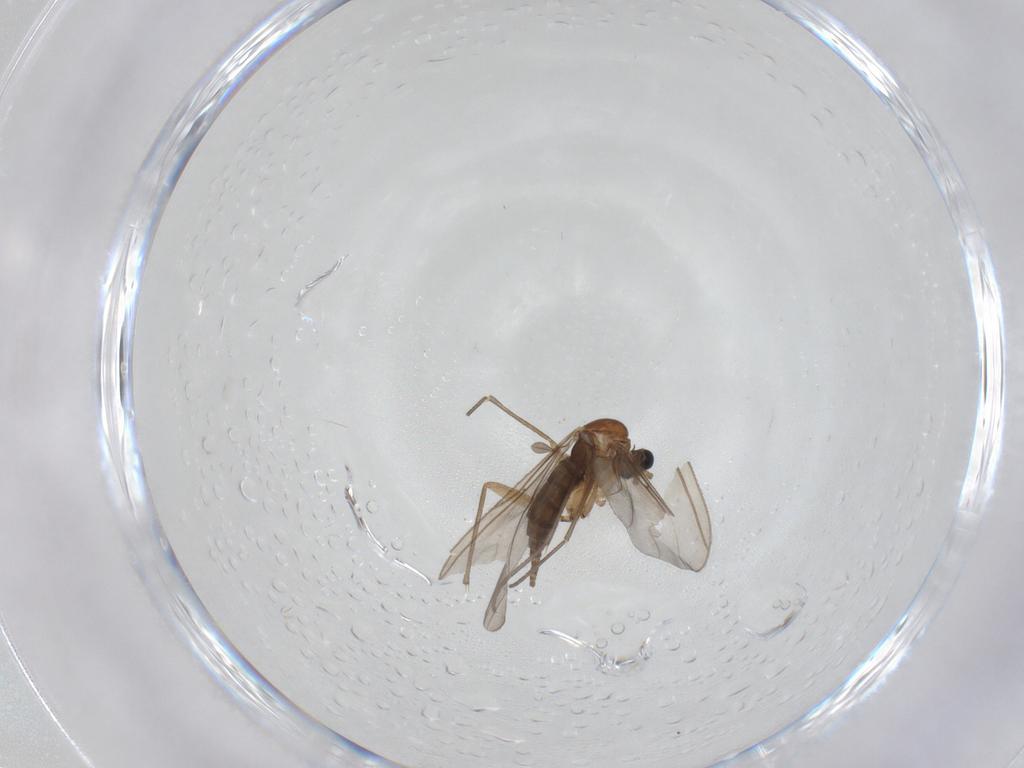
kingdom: Animalia
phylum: Arthropoda
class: Insecta
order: Diptera
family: Sciaridae
